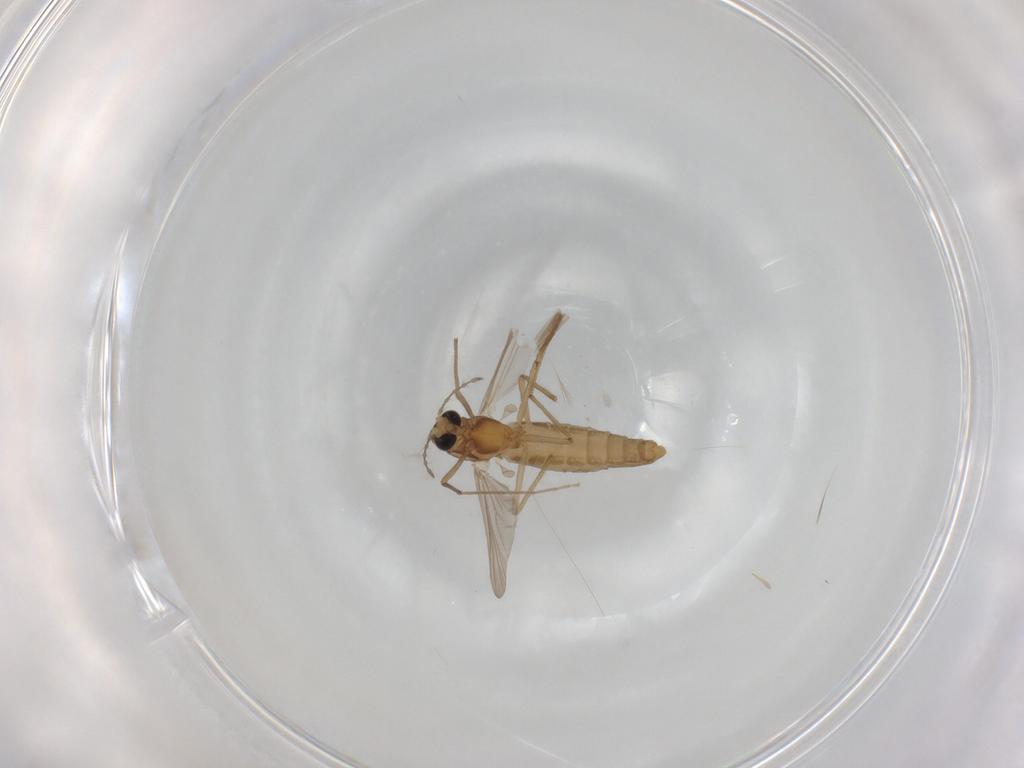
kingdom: Animalia
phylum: Arthropoda
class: Insecta
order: Diptera
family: Chironomidae
